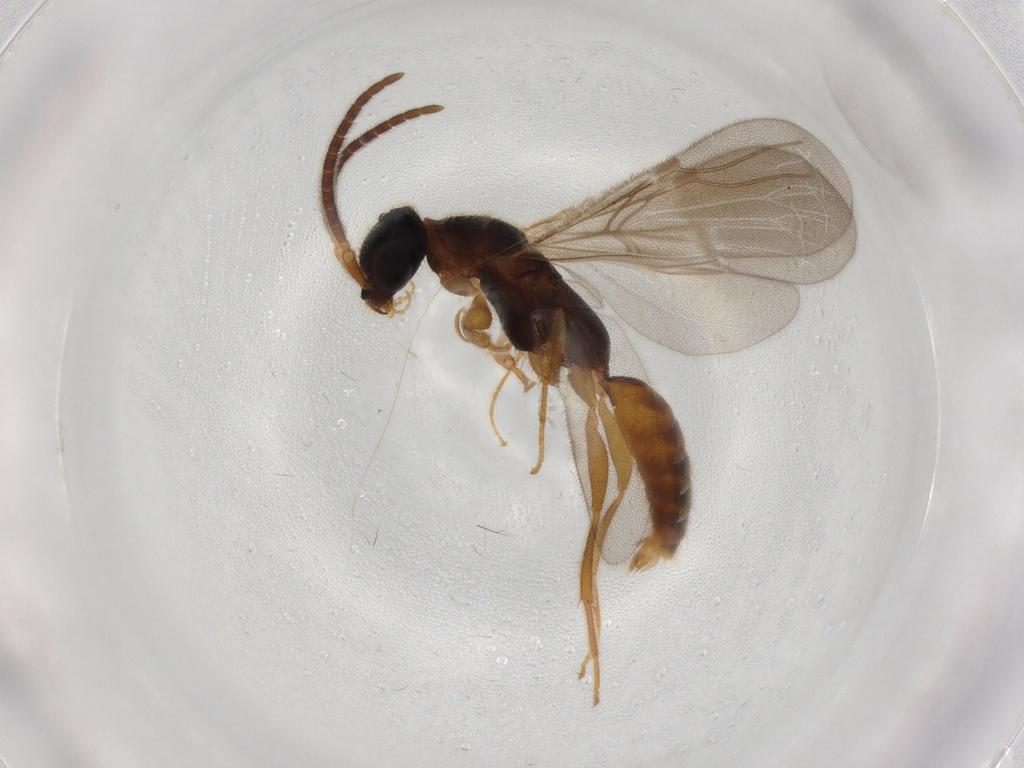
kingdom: Animalia
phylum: Arthropoda
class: Insecta
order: Hymenoptera
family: Bethylidae
